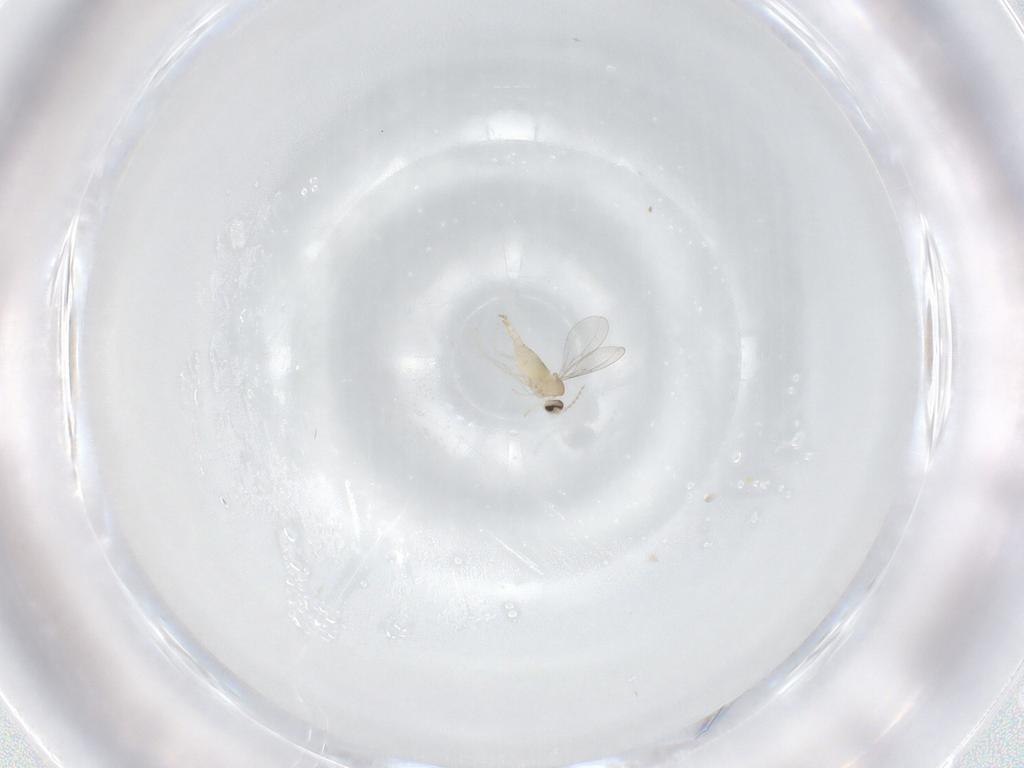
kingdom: Animalia
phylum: Arthropoda
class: Insecta
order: Diptera
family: Cecidomyiidae
